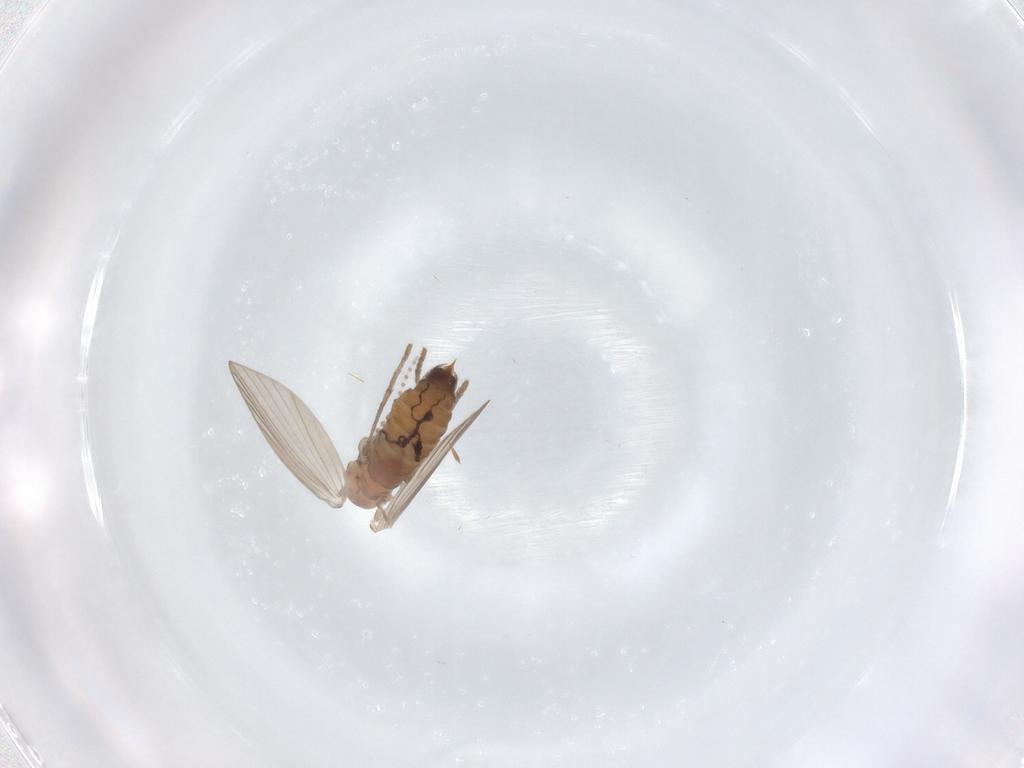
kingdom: Animalia
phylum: Arthropoda
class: Insecta
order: Diptera
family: Psychodidae
